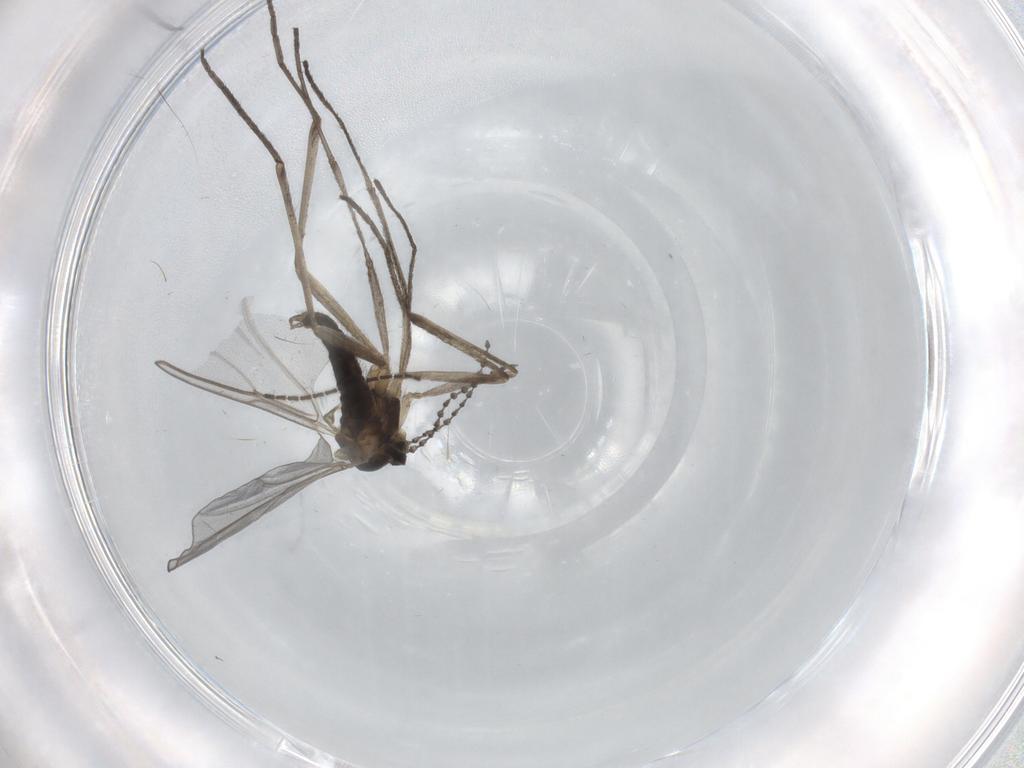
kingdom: Animalia
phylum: Arthropoda
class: Insecta
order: Diptera
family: Cecidomyiidae
